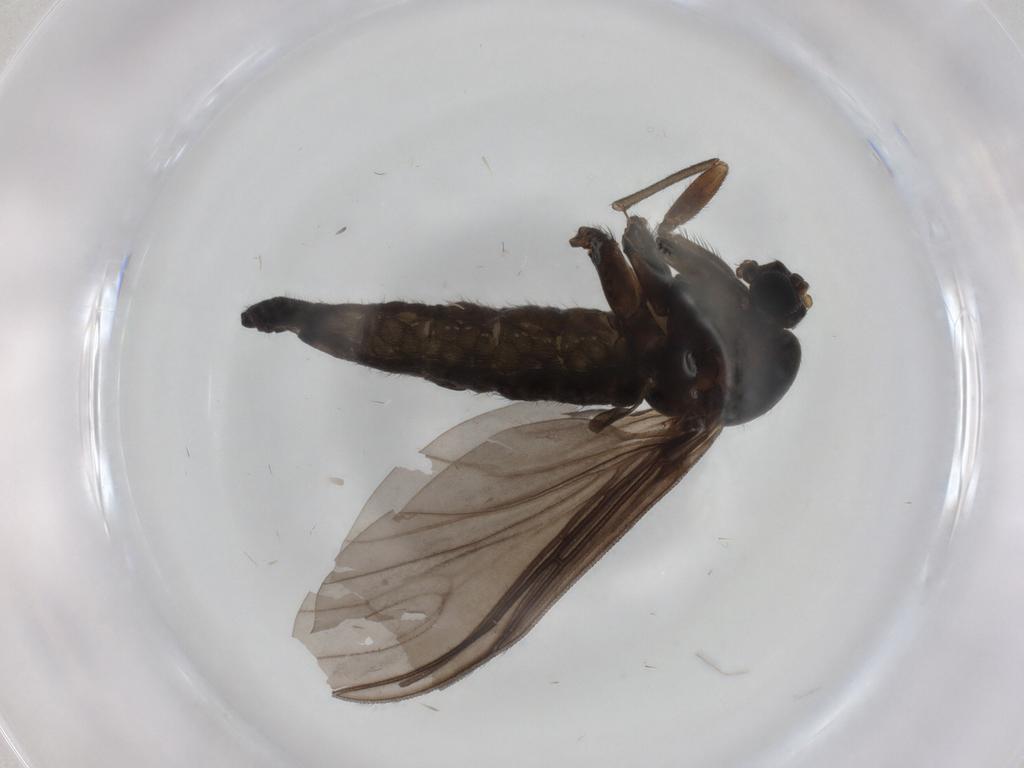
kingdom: Animalia
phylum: Arthropoda
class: Insecta
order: Diptera
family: Sciaridae
